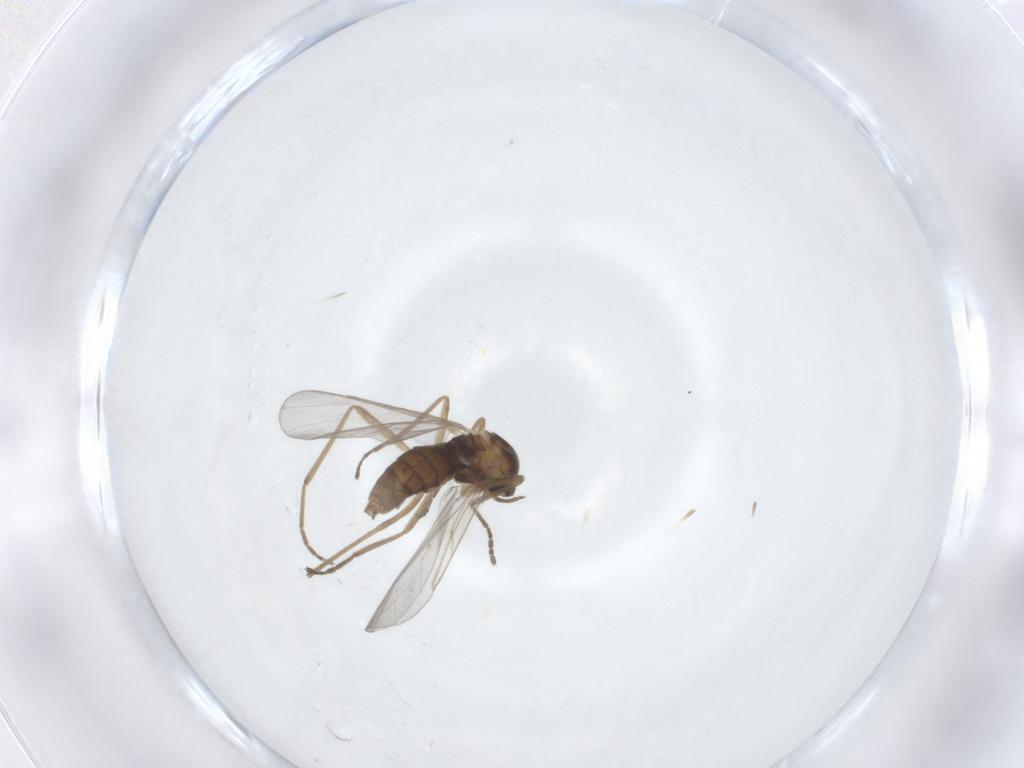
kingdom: Animalia
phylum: Arthropoda
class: Insecta
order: Diptera
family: Cecidomyiidae
